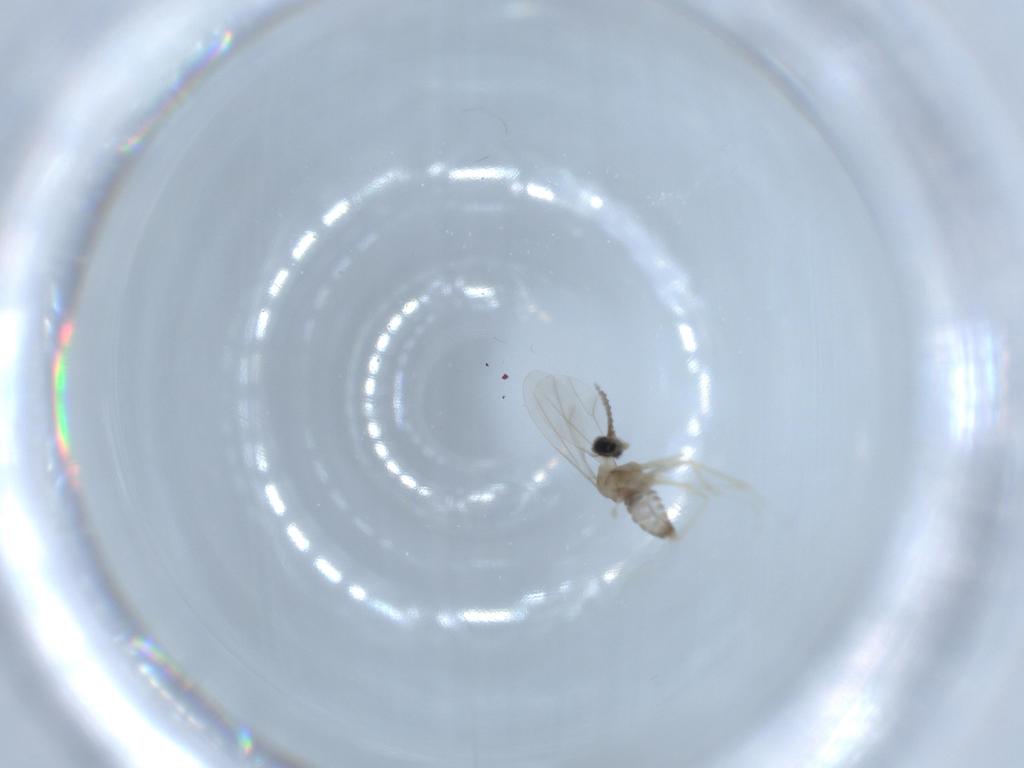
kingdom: Animalia
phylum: Arthropoda
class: Insecta
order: Diptera
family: Cecidomyiidae
